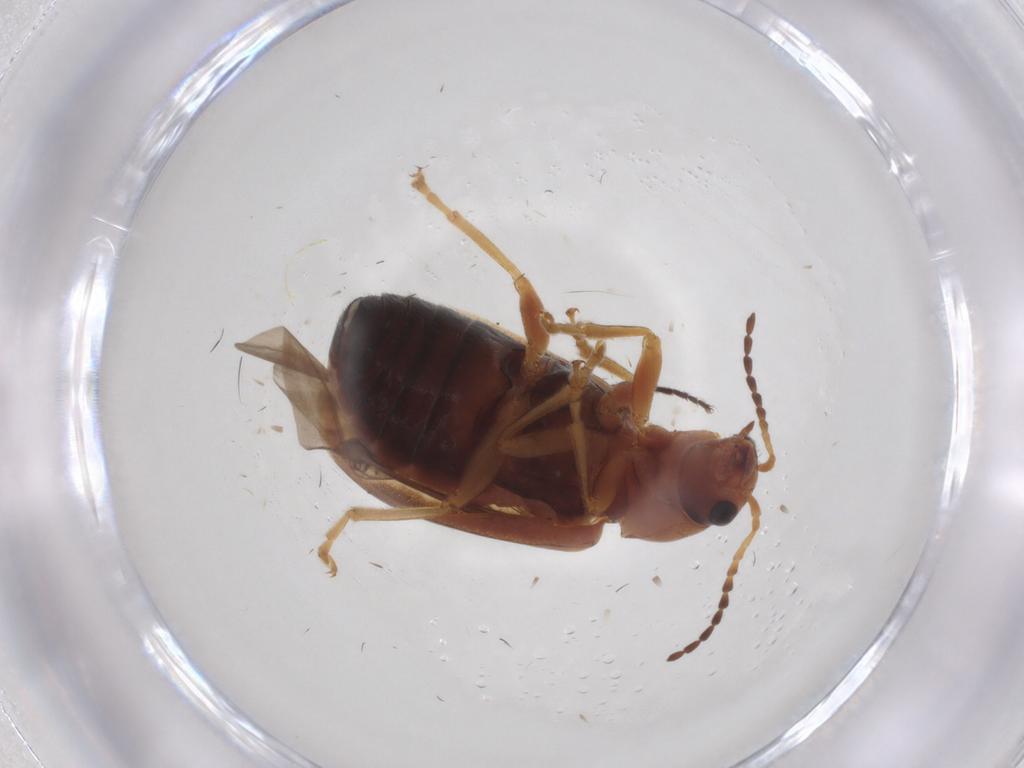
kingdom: Animalia
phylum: Arthropoda
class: Insecta
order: Coleoptera
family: Chrysomelidae
